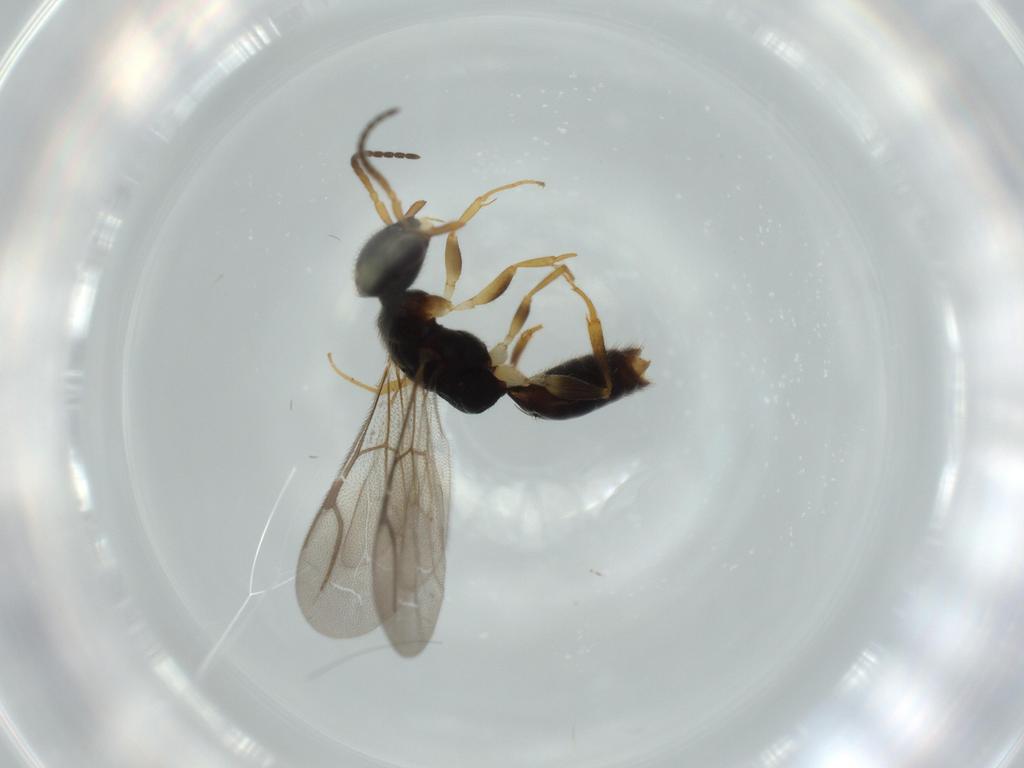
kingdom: Animalia
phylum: Arthropoda
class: Insecta
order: Hymenoptera
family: Bethylidae
